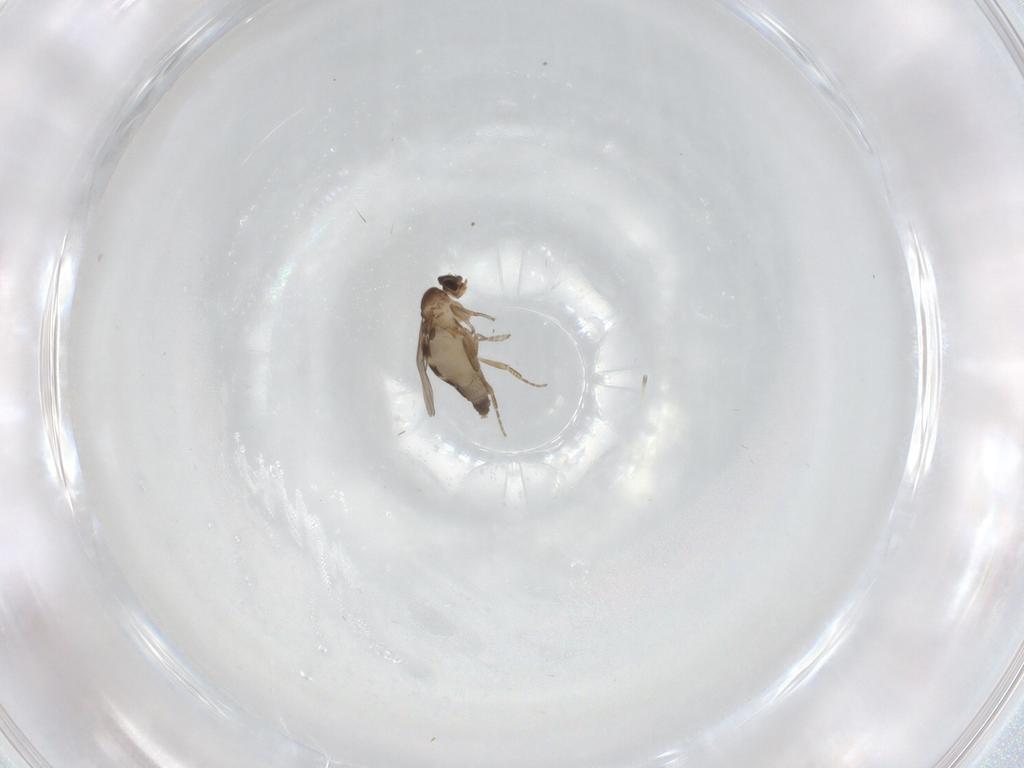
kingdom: Animalia
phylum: Arthropoda
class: Insecta
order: Diptera
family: Phoridae
